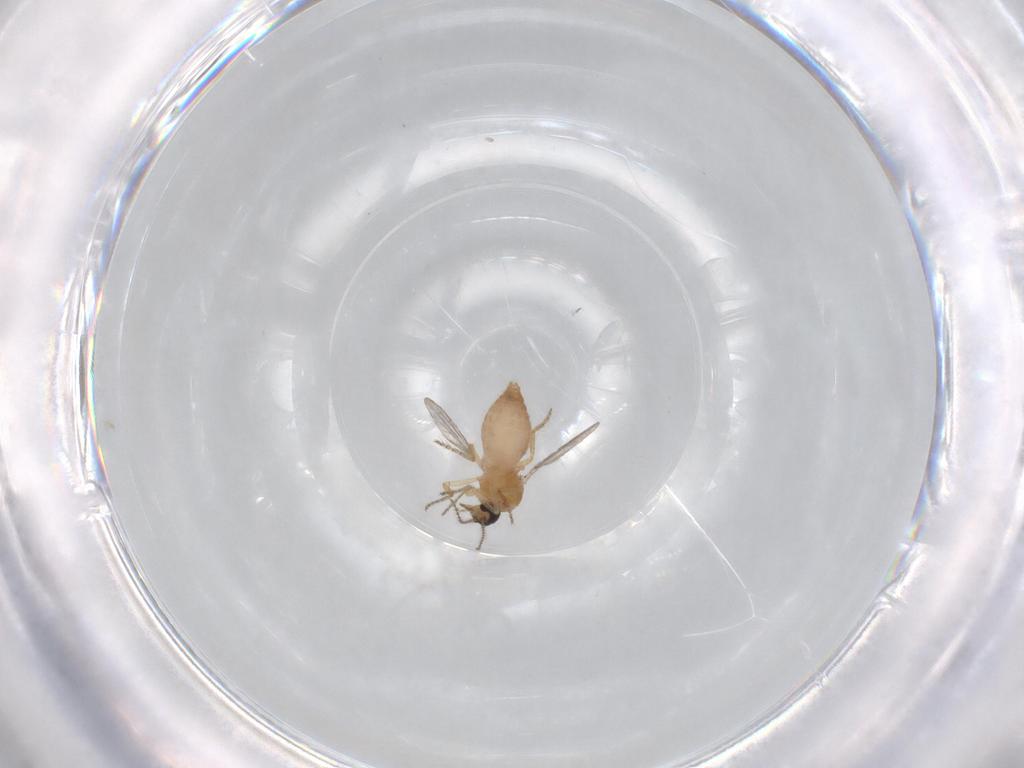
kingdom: Animalia
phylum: Arthropoda
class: Insecta
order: Diptera
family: Ceratopogonidae
